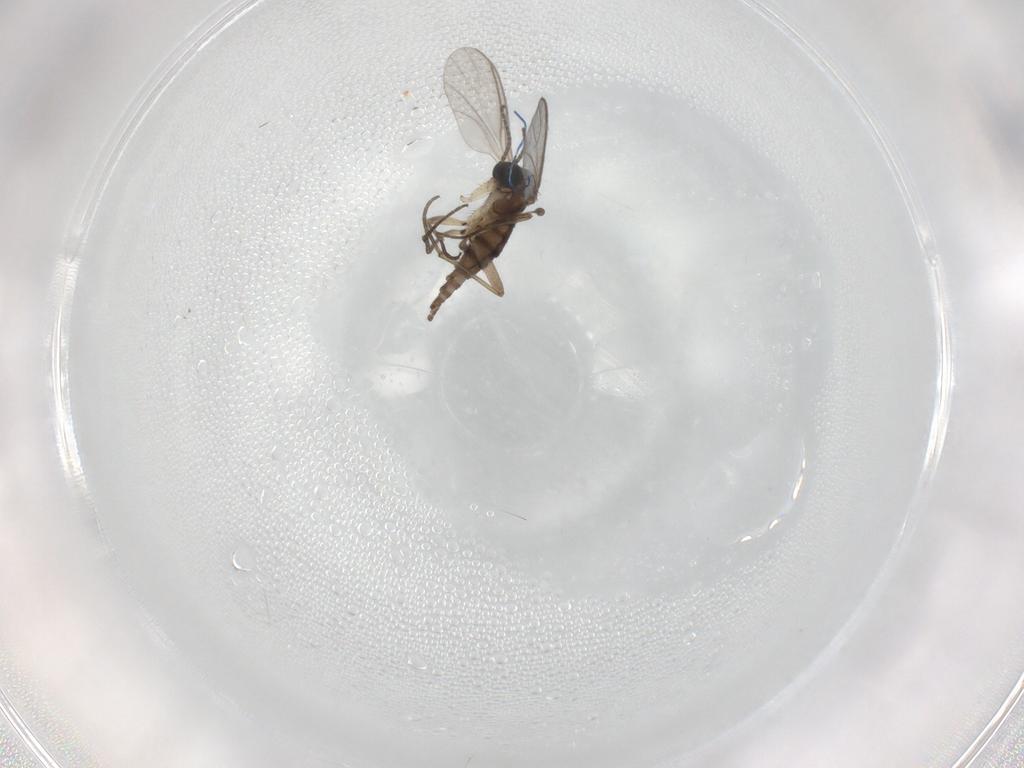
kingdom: Animalia
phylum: Arthropoda
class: Insecta
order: Diptera
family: Sciaridae
